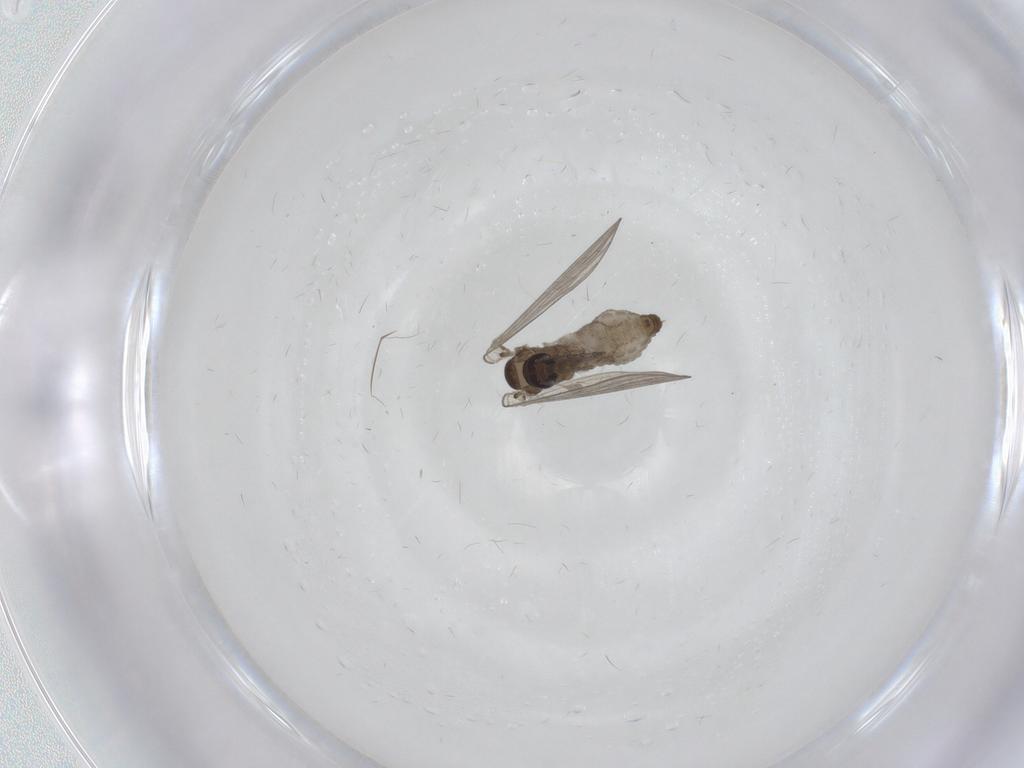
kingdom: Animalia
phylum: Arthropoda
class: Insecta
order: Diptera
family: Psychodidae
